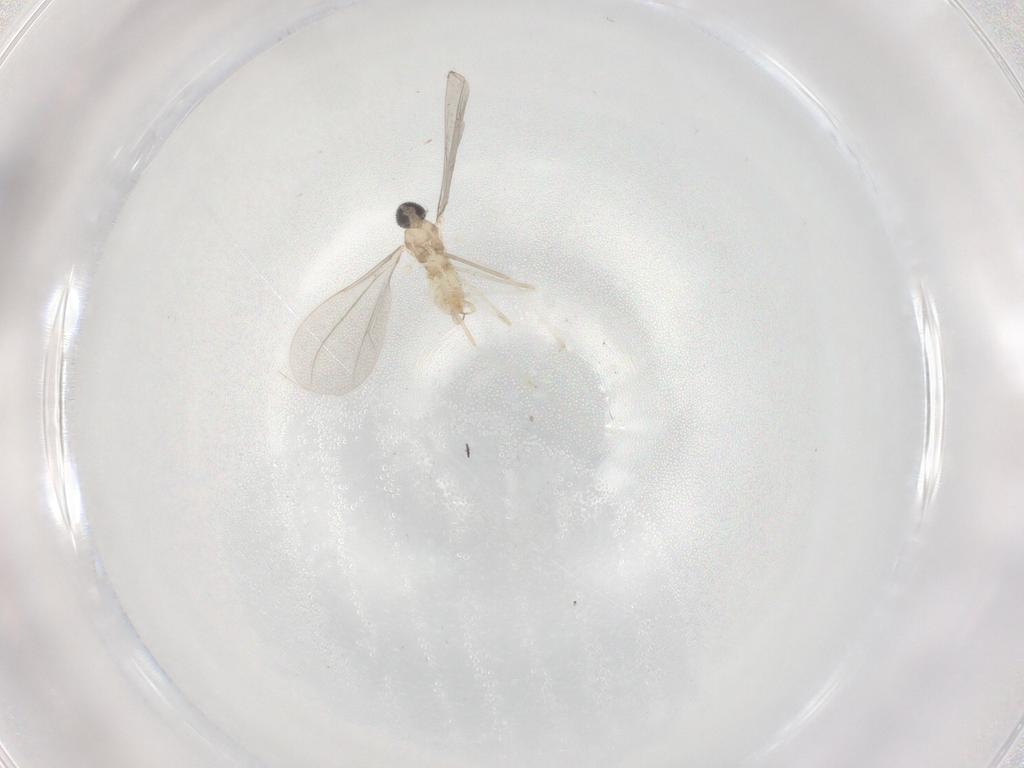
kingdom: Animalia
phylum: Arthropoda
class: Insecta
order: Diptera
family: Cecidomyiidae
